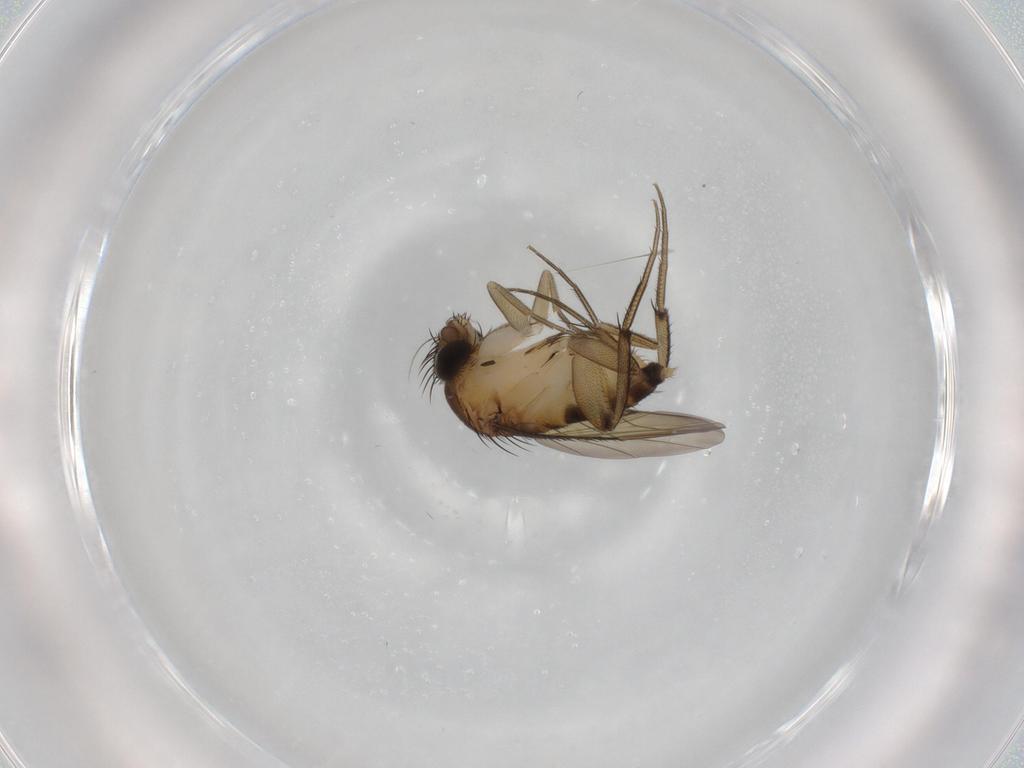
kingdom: Animalia
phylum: Arthropoda
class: Insecta
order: Diptera
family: Phoridae
